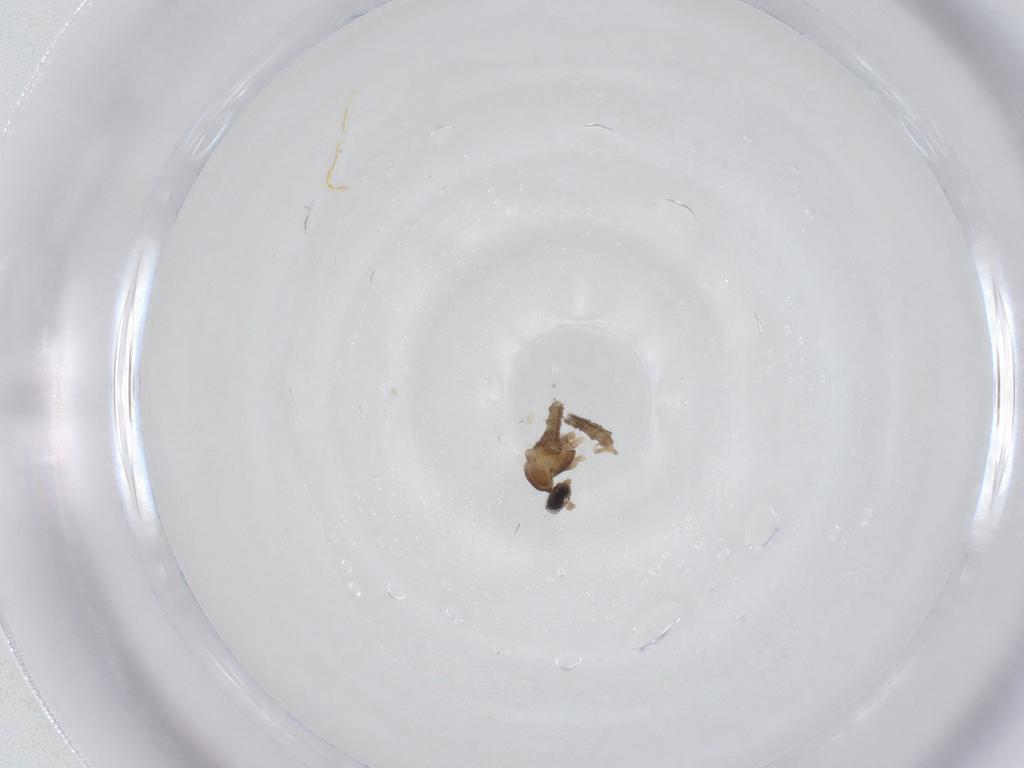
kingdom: Animalia
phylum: Arthropoda
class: Insecta
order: Diptera
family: Cecidomyiidae
